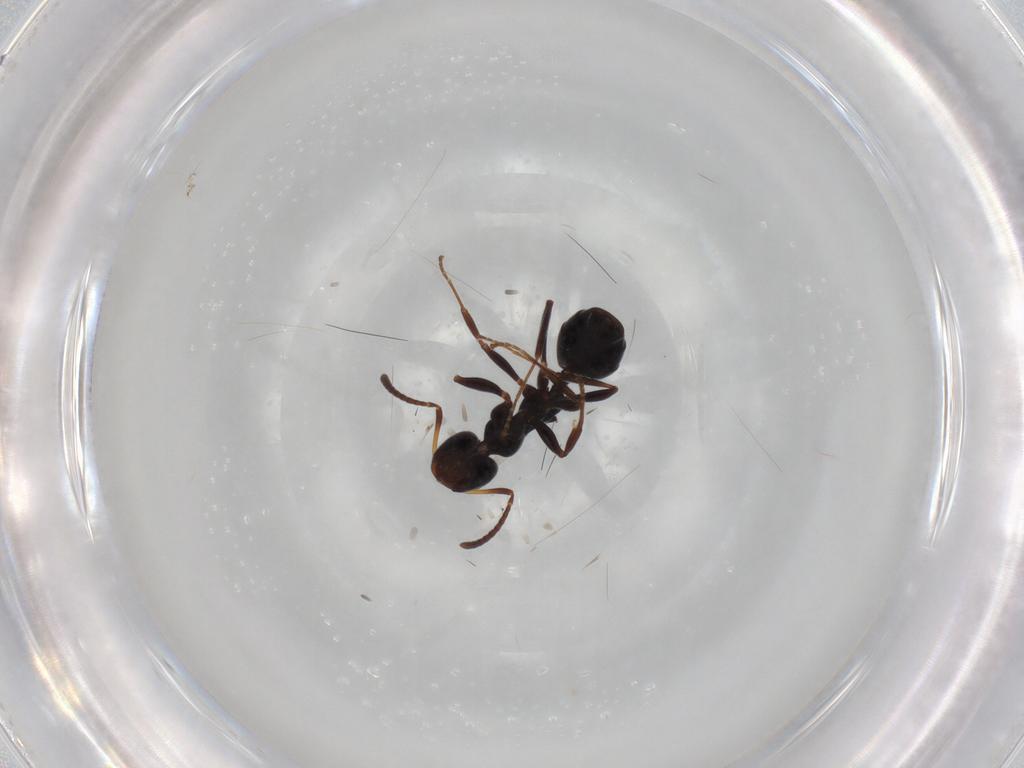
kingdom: Animalia
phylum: Arthropoda
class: Insecta
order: Hymenoptera
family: Formicidae
